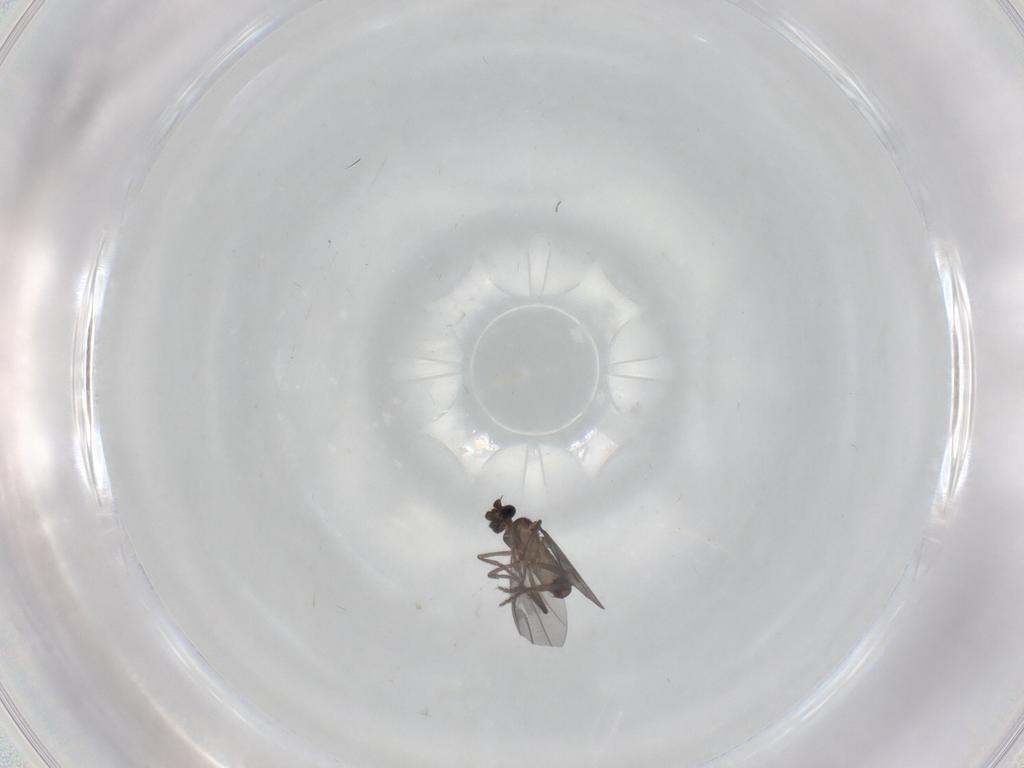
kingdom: Animalia
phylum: Arthropoda
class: Insecta
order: Diptera
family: Phoridae
